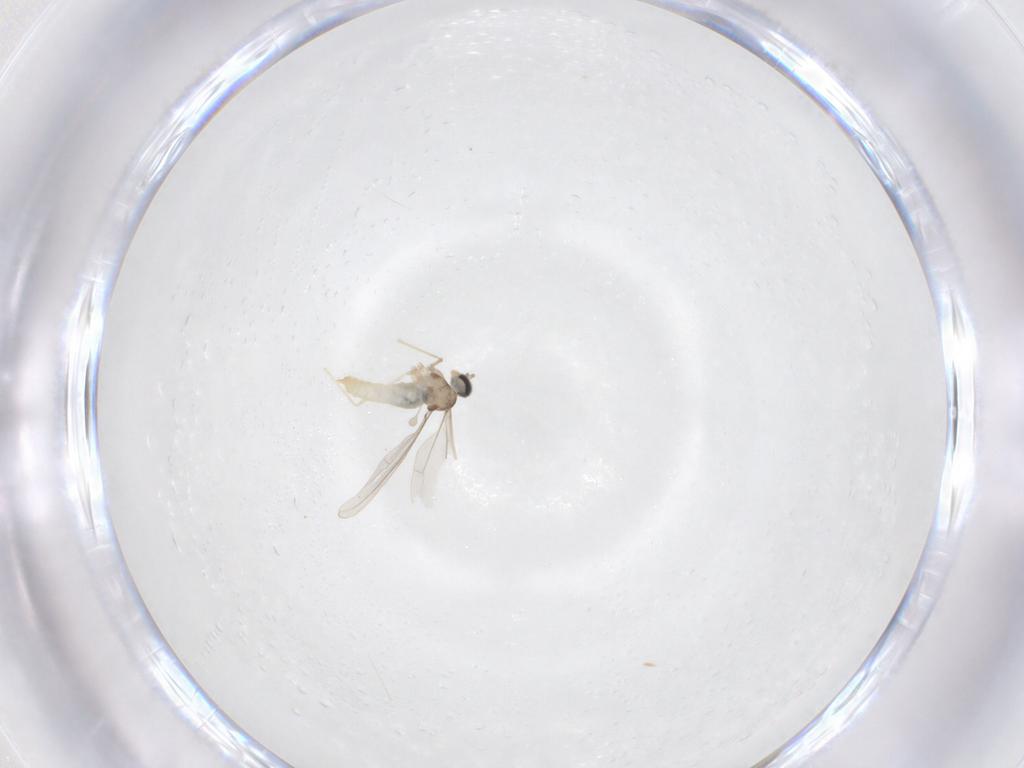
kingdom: Animalia
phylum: Arthropoda
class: Insecta
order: Diptera
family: Cecidomyiidae
